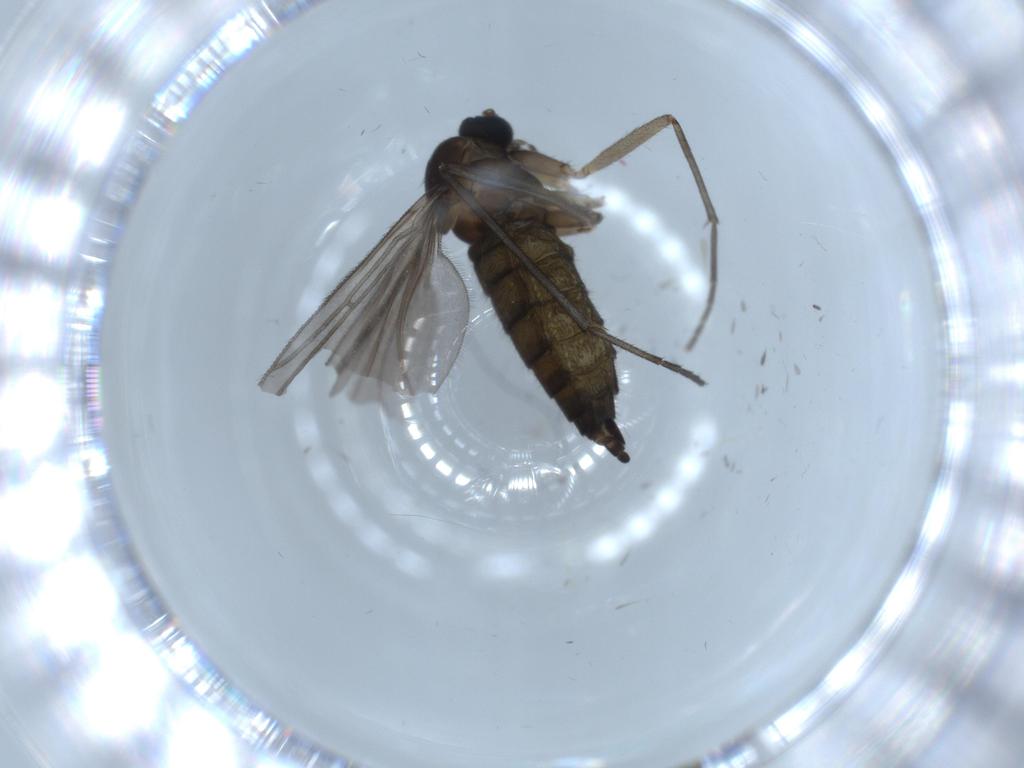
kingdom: Animalia
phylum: Arthropoda
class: Insecta
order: Diptera
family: Sciaridae
